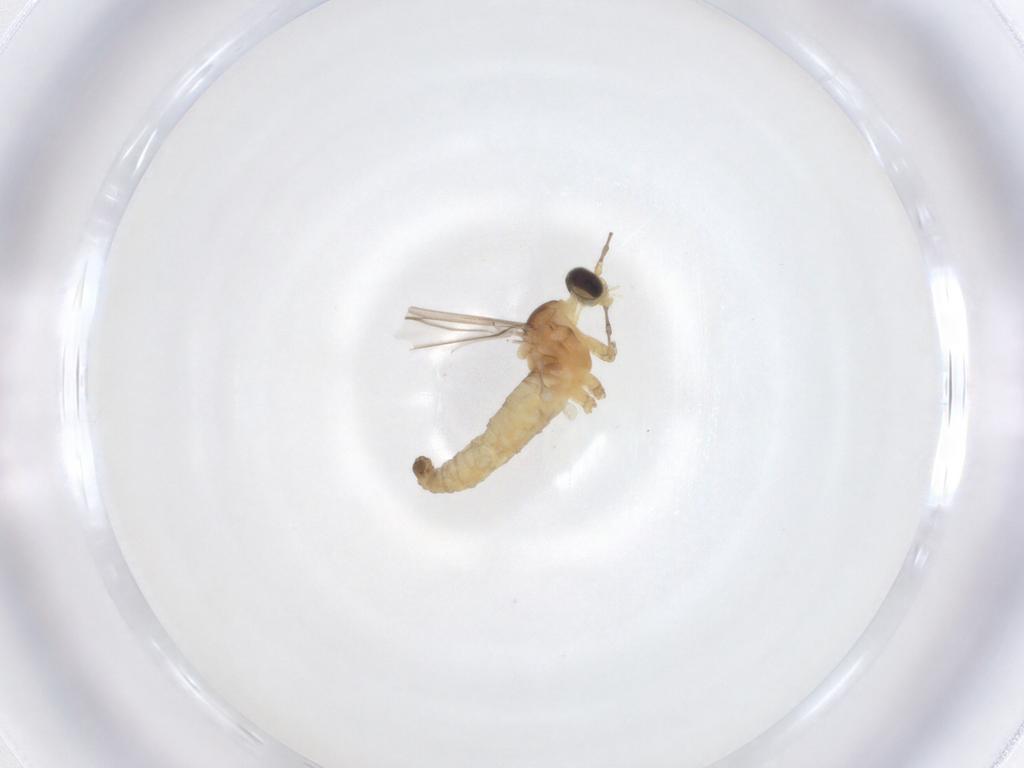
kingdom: Animalia
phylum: Arthropoda
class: Insecta
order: Diptera
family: Cecidomyiidae
